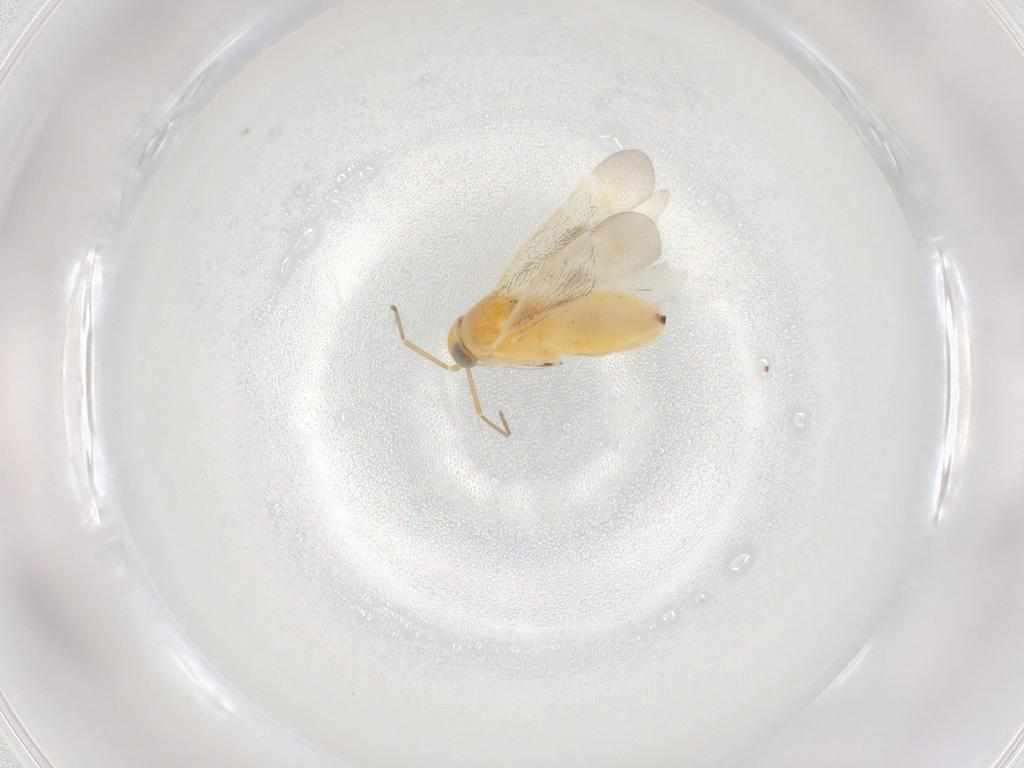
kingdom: Animalia
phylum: Arthropoda
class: Insecta
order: Hemiptera
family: Miridae
